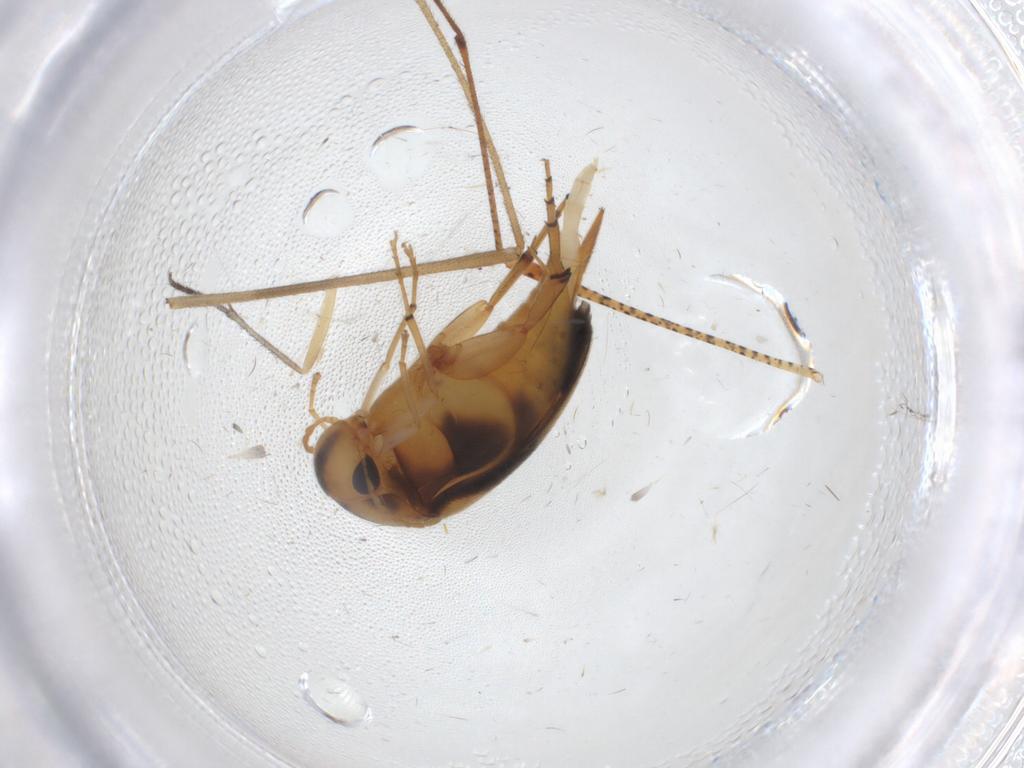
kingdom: Animalia
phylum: Arthropoda
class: Insecta
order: Coleoptera
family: Mordellidae
